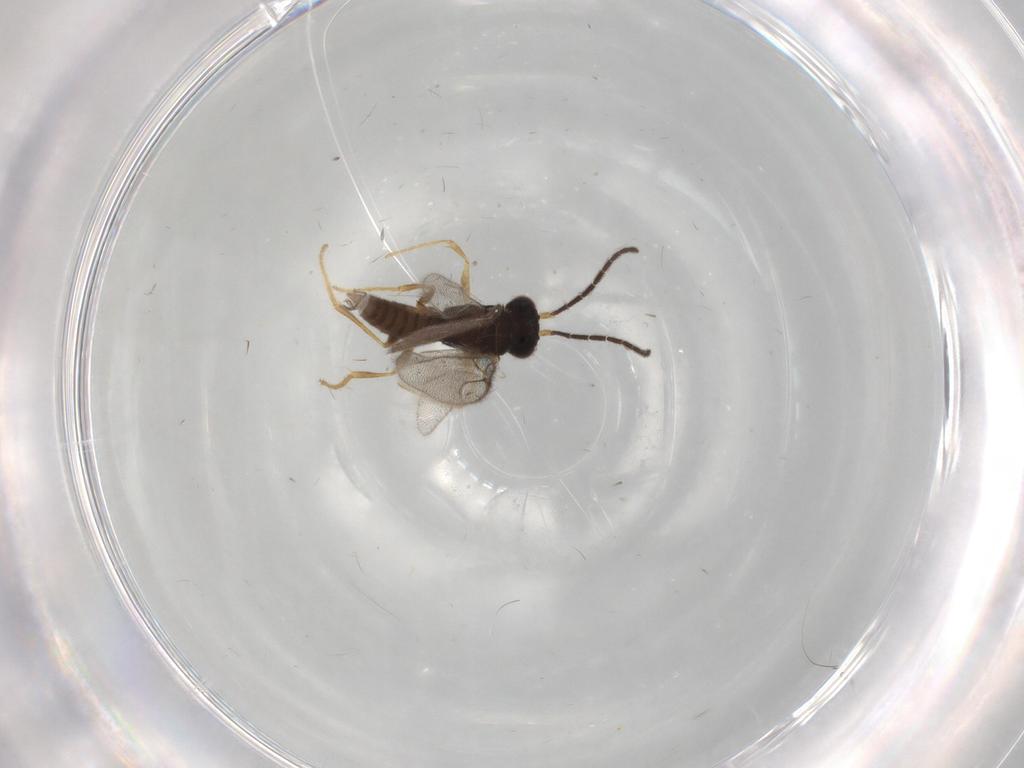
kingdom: Animalia
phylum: Arthropoda
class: Insecta
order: Hymenoptera
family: Dryinidae
